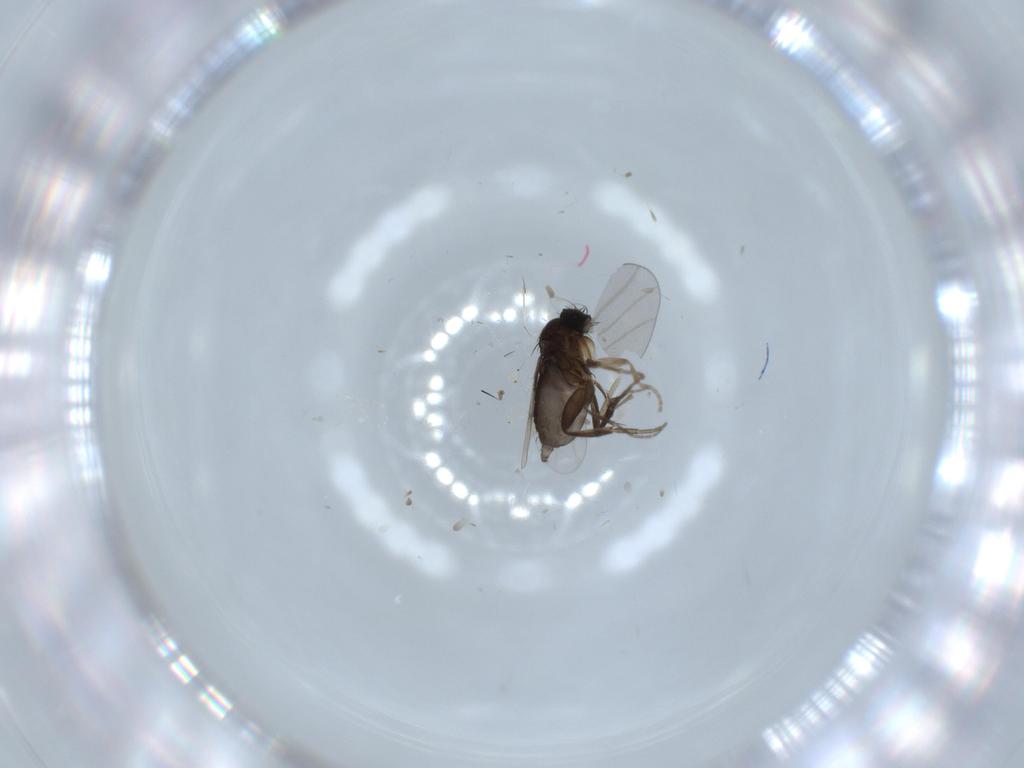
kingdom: Animalia
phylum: Arthropoda
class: Insecta
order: Diptera
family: Phoridae
